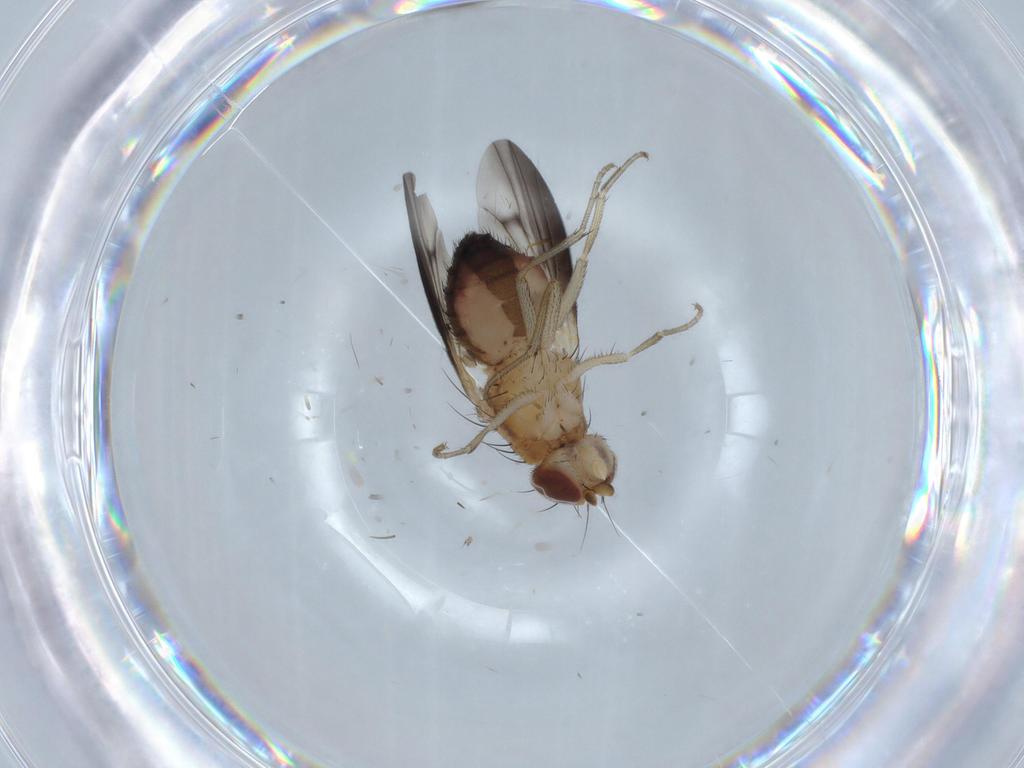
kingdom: Animalia
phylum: Arthropoda
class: Insecta
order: Diptera
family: Heleomyzidae
